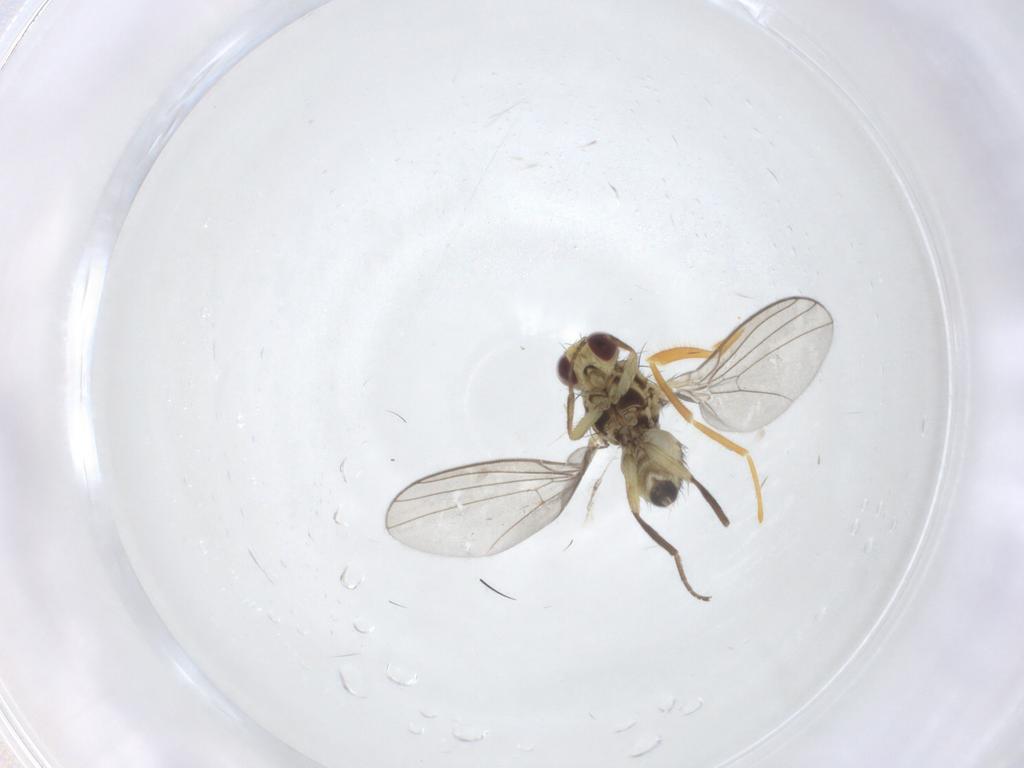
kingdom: Animalia
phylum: Arthropoda
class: Insecta
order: Diptera
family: Agromyzidae
